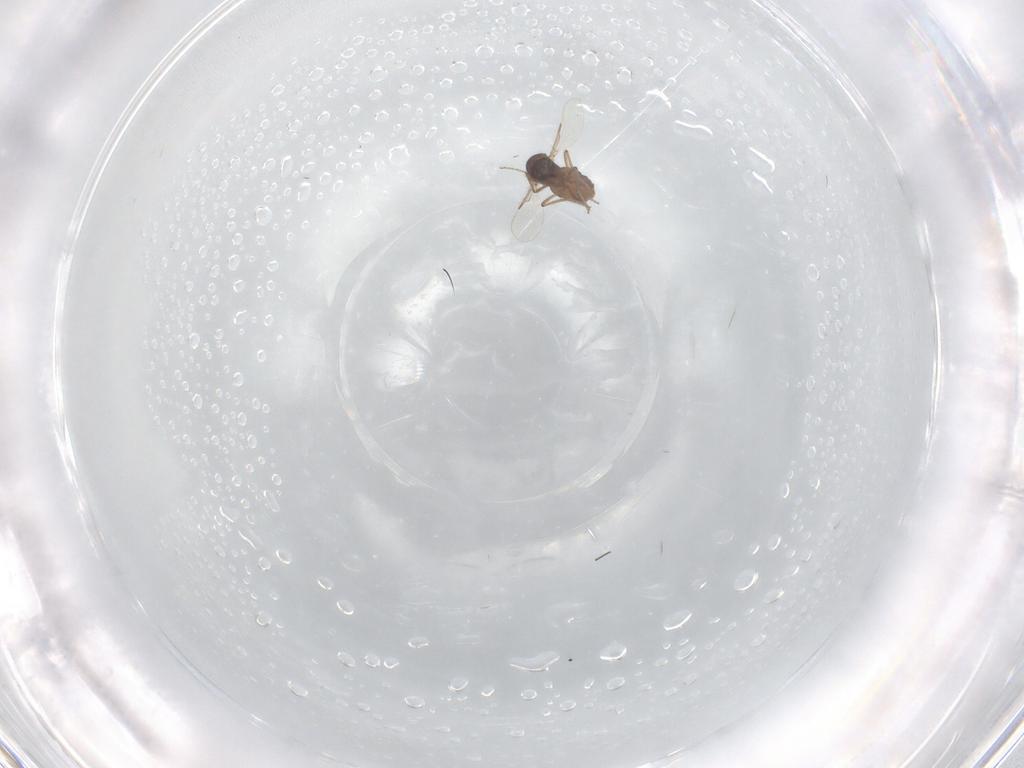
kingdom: Animalia
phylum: Arthropoda
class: Insecta
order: Diptera
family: Ceratopogonidae
